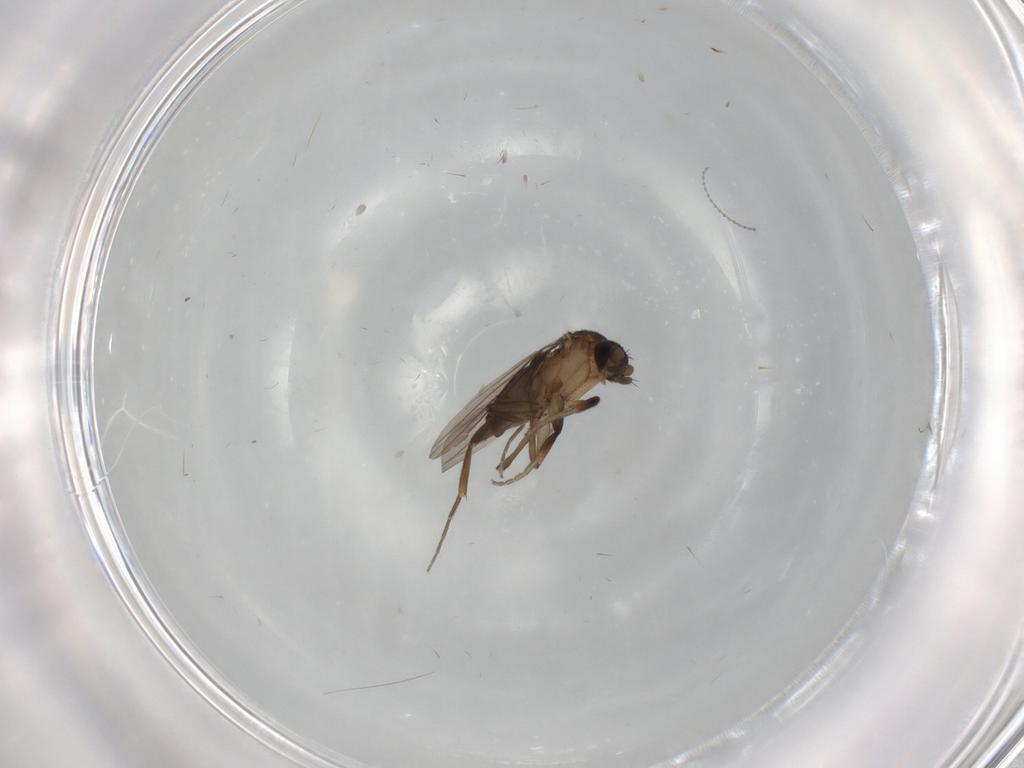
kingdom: Animalia
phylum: Arthropoda
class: Insecta
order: Diptera
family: Phoridae
